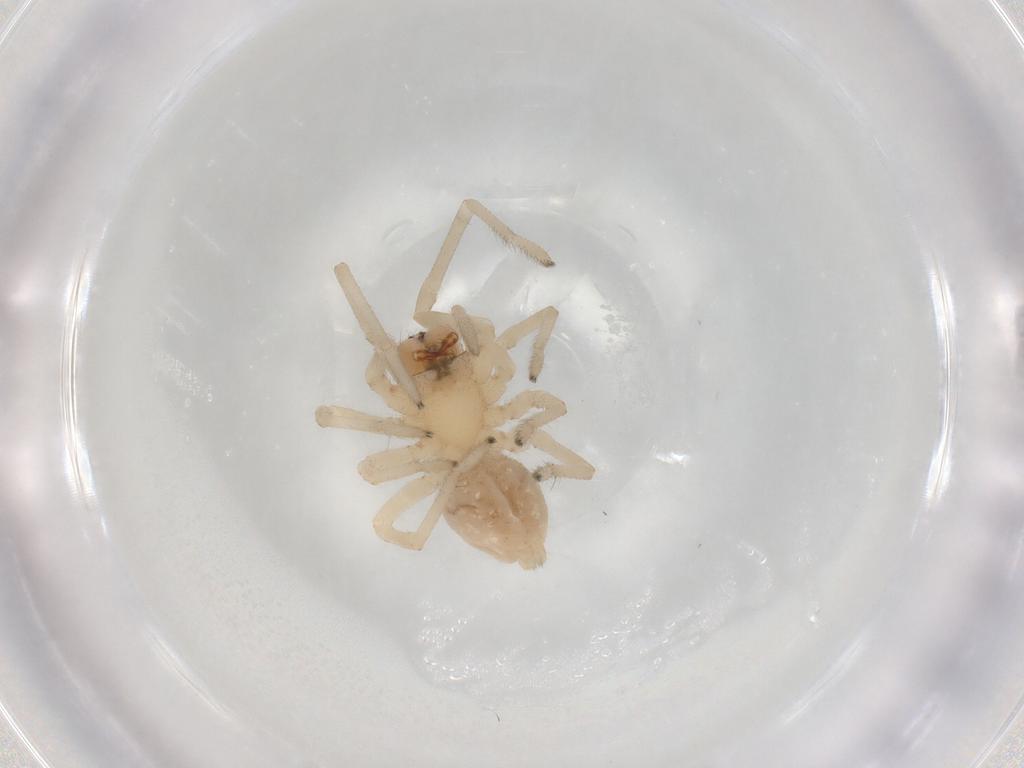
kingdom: Animalia
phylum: Arthropoda
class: Arachnida
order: Araneae
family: Cheiracanthiidae
